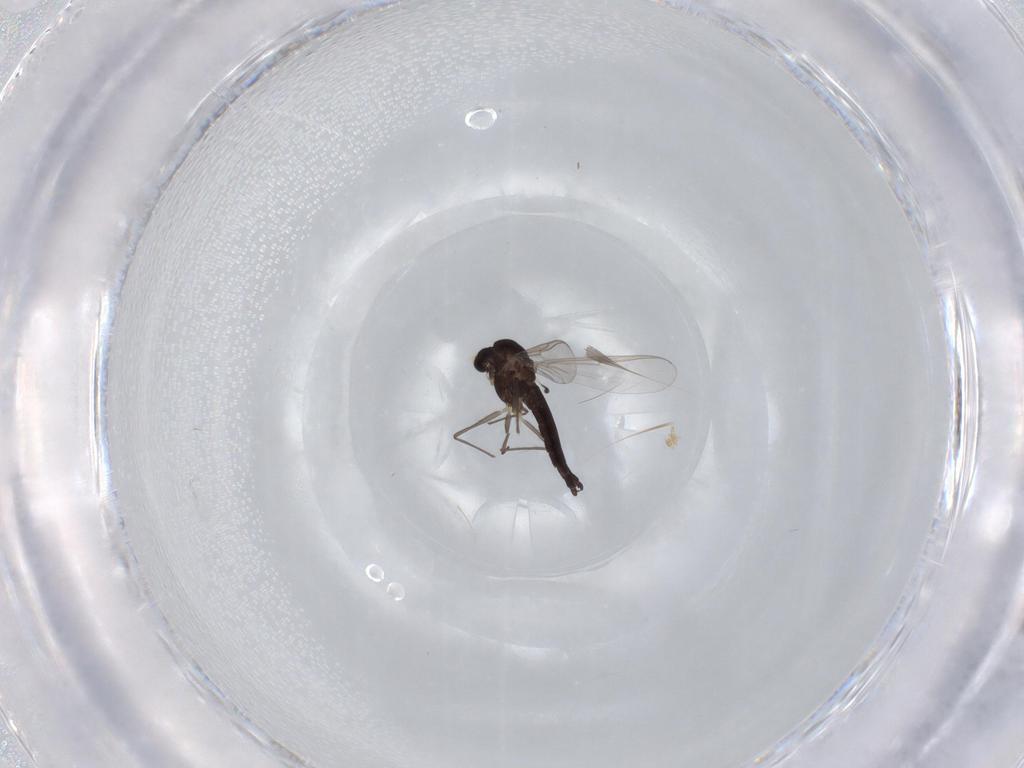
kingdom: Animalia
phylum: Arthropoda
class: Insecta
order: Diptera
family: Chironomidae
